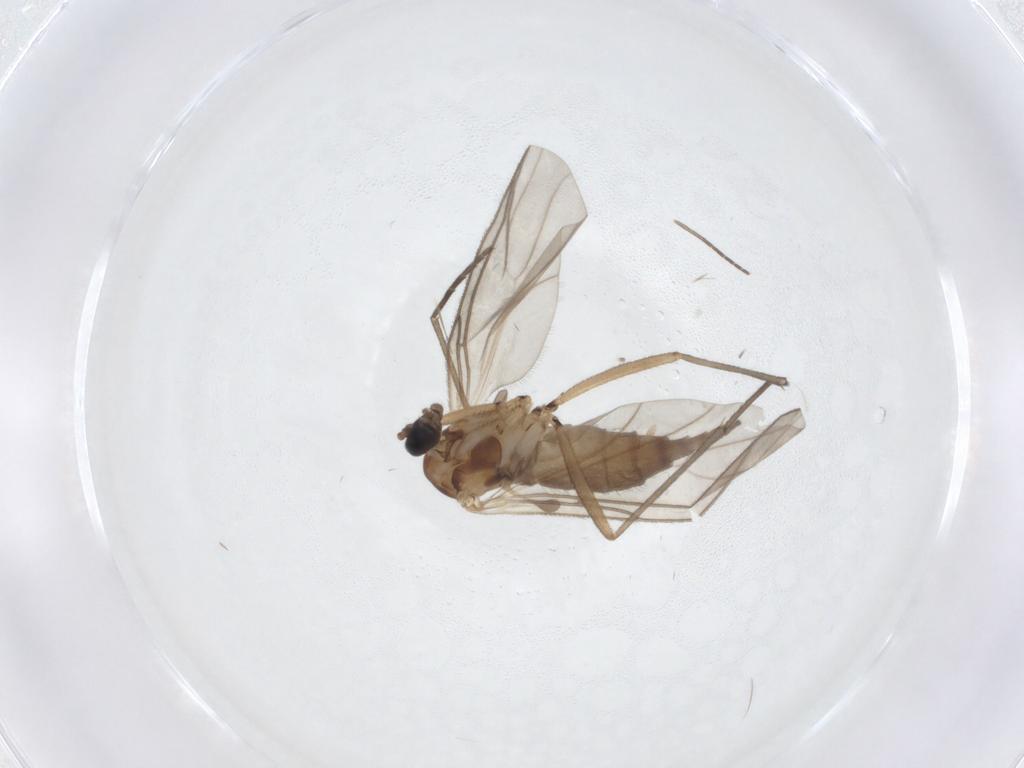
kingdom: Animalia
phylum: Arthropoda
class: Insecta
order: Diptera
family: Sciaridae
